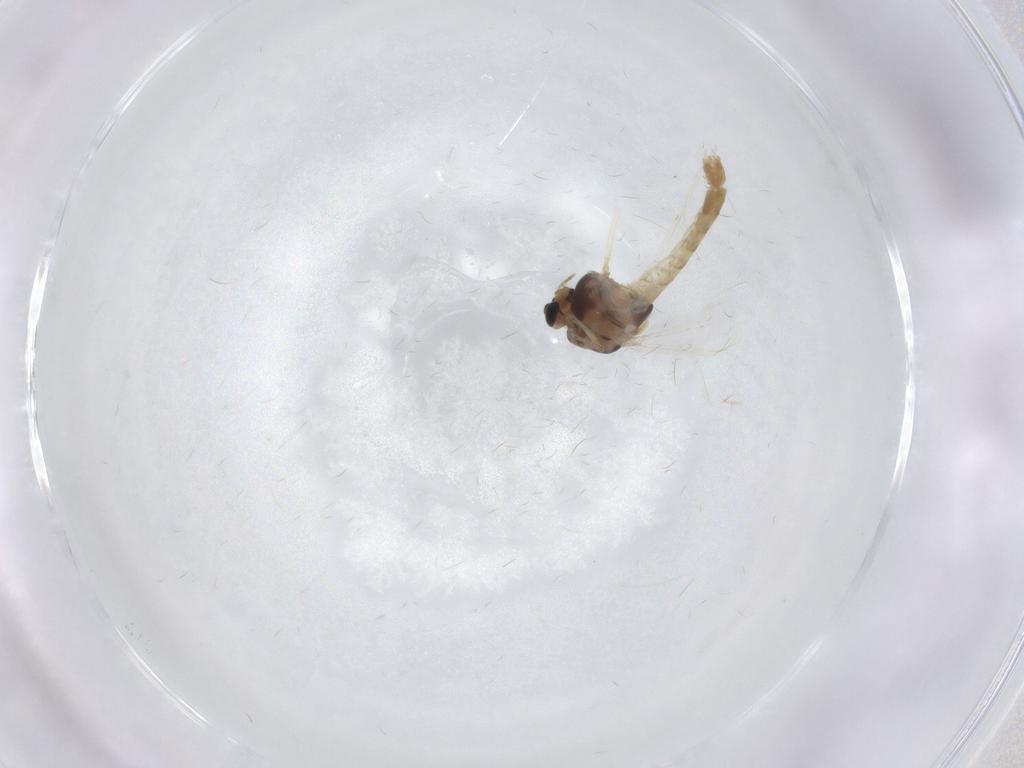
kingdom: Animalia
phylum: Arthropoda
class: Insecta
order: Diptera
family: Chironomidae
